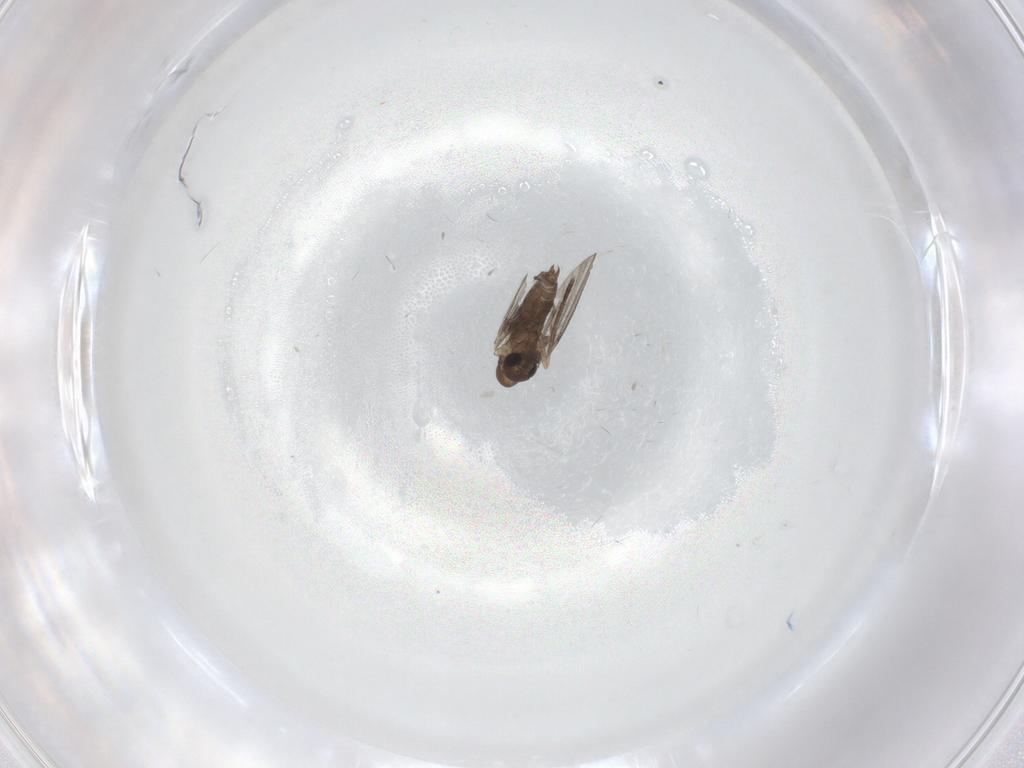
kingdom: Animalia
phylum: Arthropoda
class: Insecta
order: Diptera
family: Sciaridae
